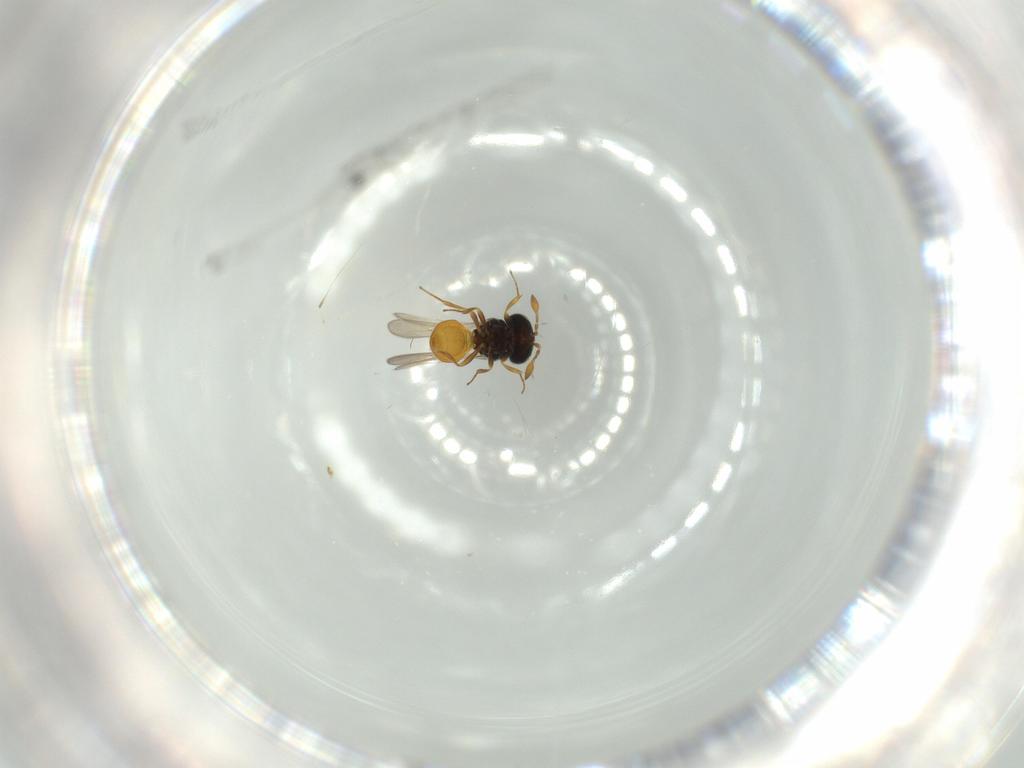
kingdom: Animalia
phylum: Arthropoda
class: Insecta
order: Hymenoptera
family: Scelionidae
